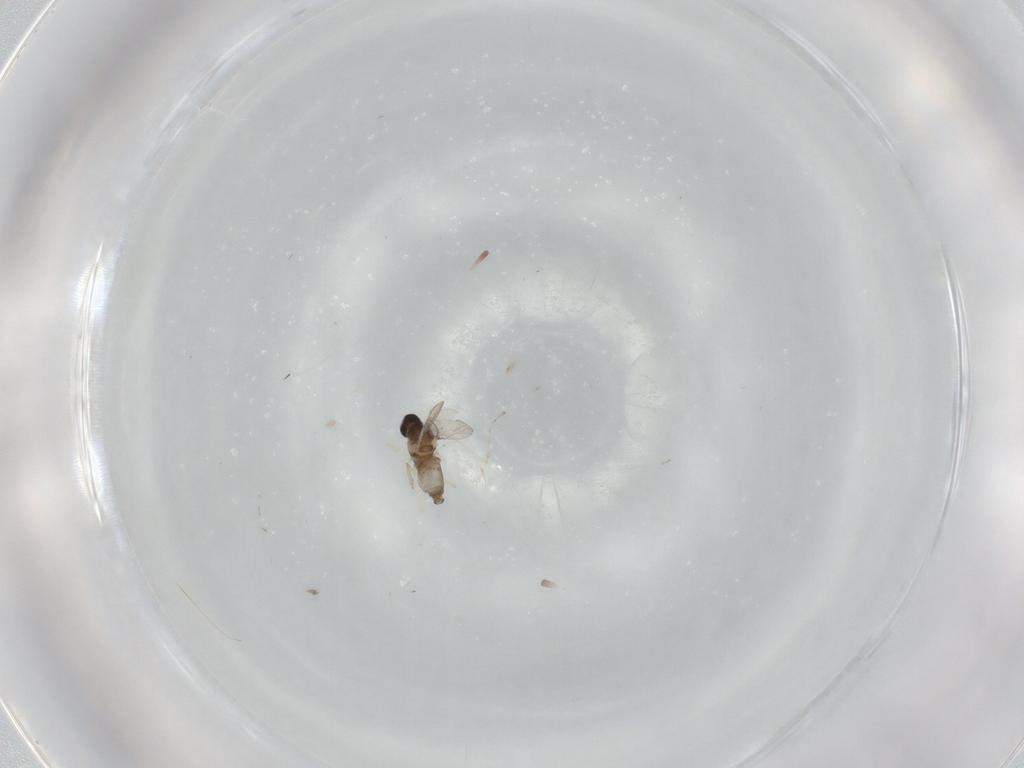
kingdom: Animalia
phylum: Arthropoda
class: Insecta
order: Diptera
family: Cecidomyiidae
